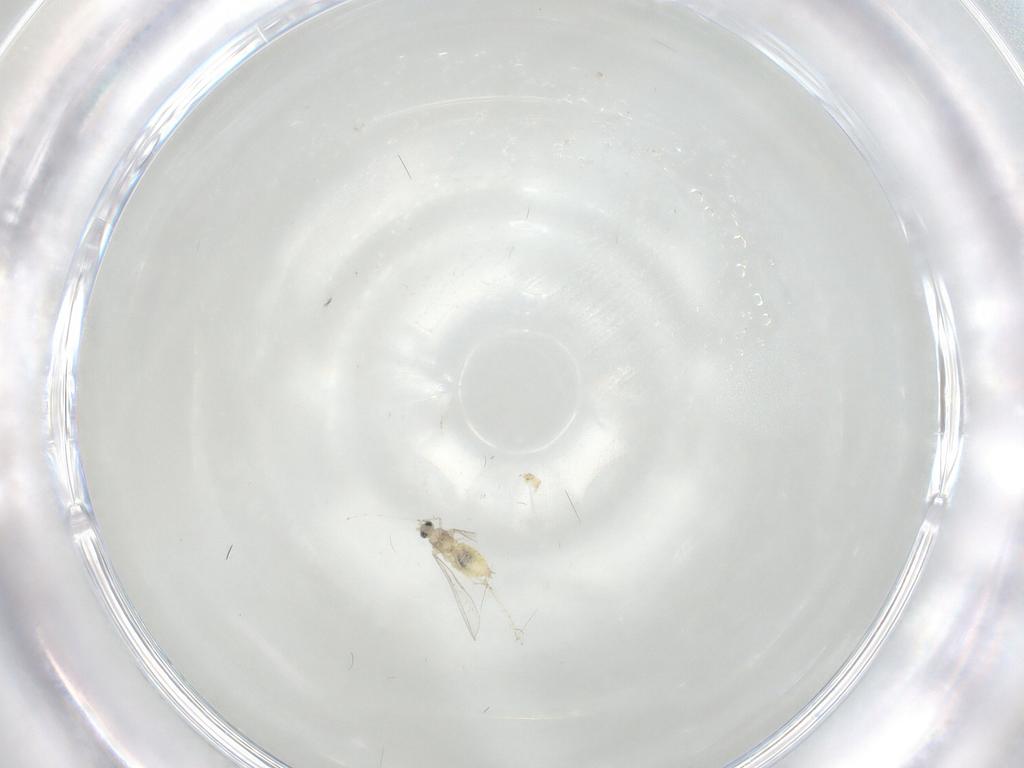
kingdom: Animalia
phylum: Arthropoda
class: Insecta
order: Diptera
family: Cecidomyiidae
